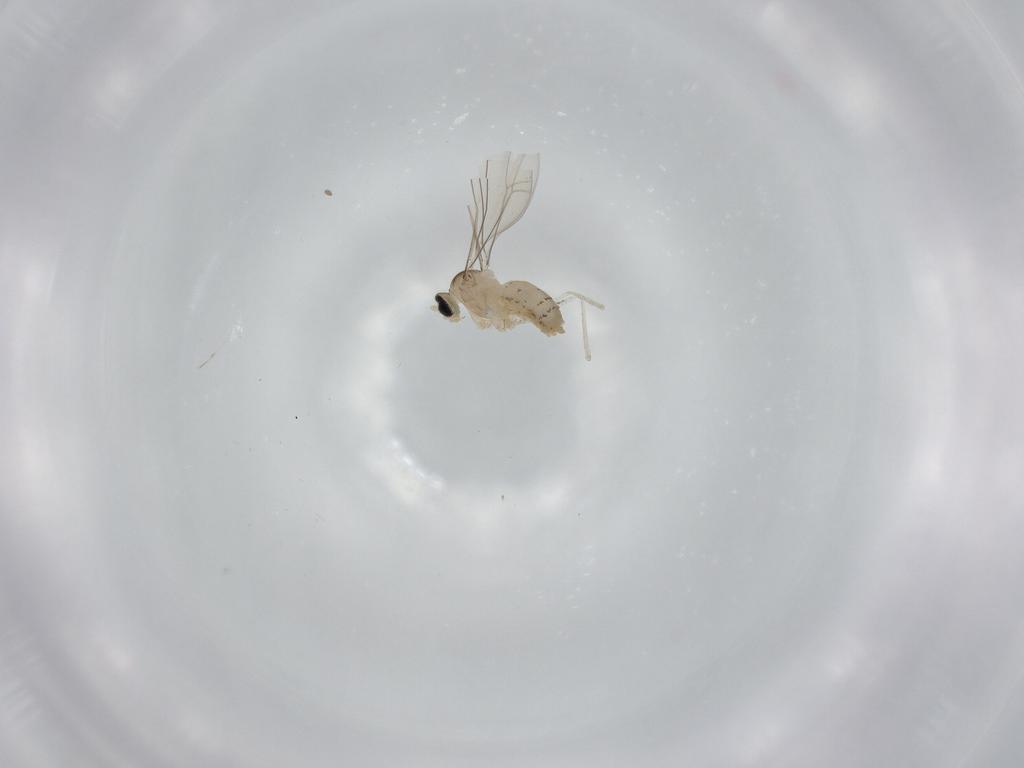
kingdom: Animalia
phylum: Arthropoda
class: Insecta
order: Diptera
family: Cecidomyiidae
